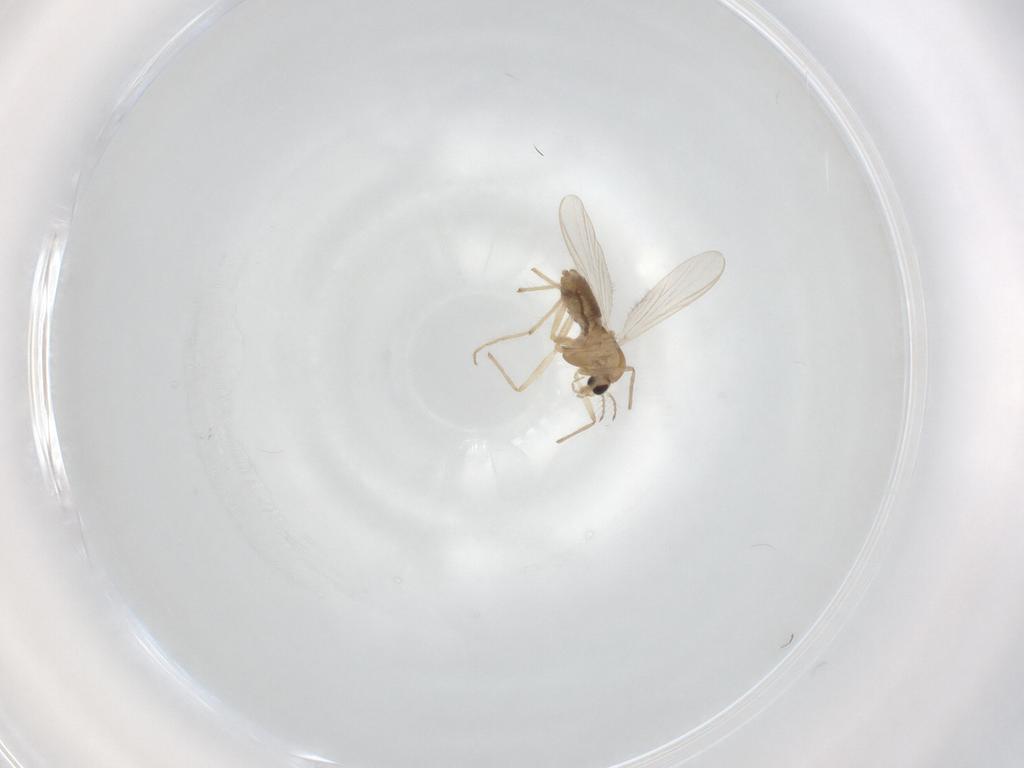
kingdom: Animalia
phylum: Arthropoda
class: Insecta
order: Diptera
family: Chironomidae
